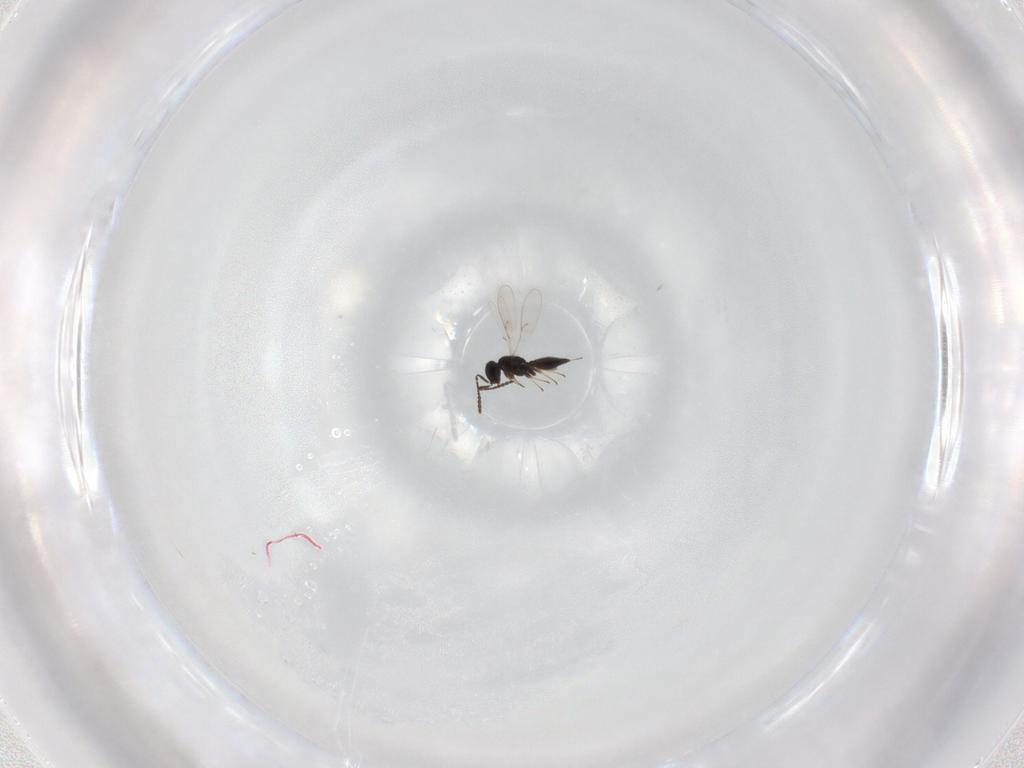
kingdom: Animalia
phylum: Arthropoda
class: Insecta
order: Hymenoptera
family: Scelionidae
